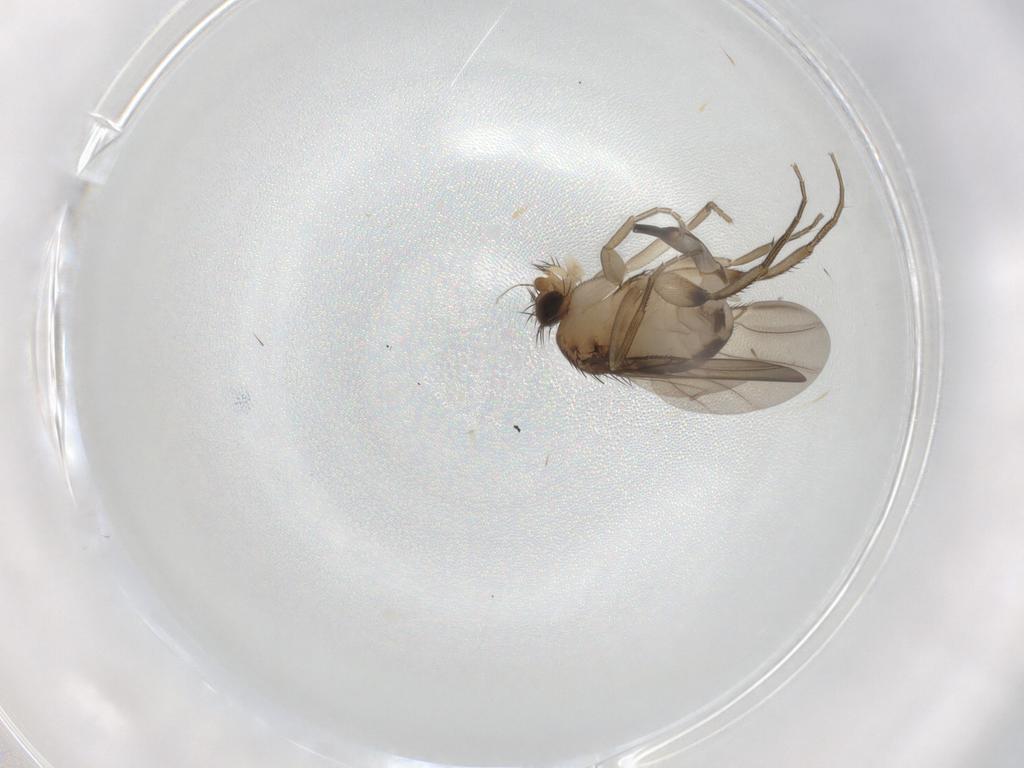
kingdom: Animalia
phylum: Arthropoda
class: Insecta
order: Diptera
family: Phoridae
